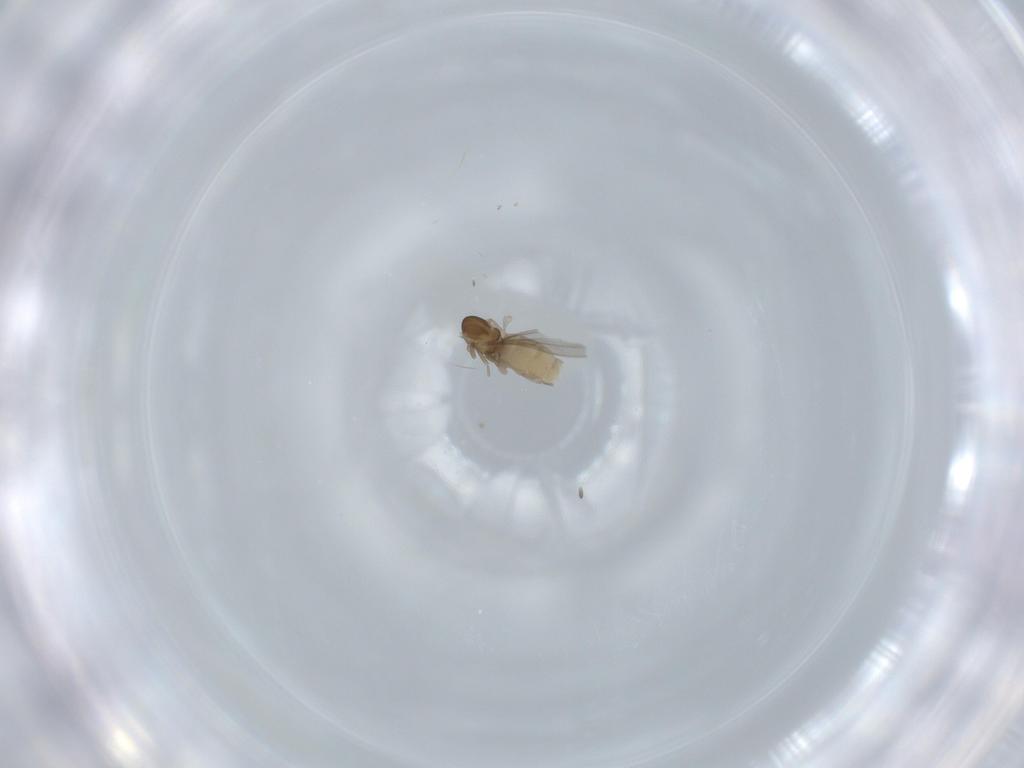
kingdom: Animalia
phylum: Arthropoda
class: Insecta
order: Diptera
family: Cecidomyiidae
